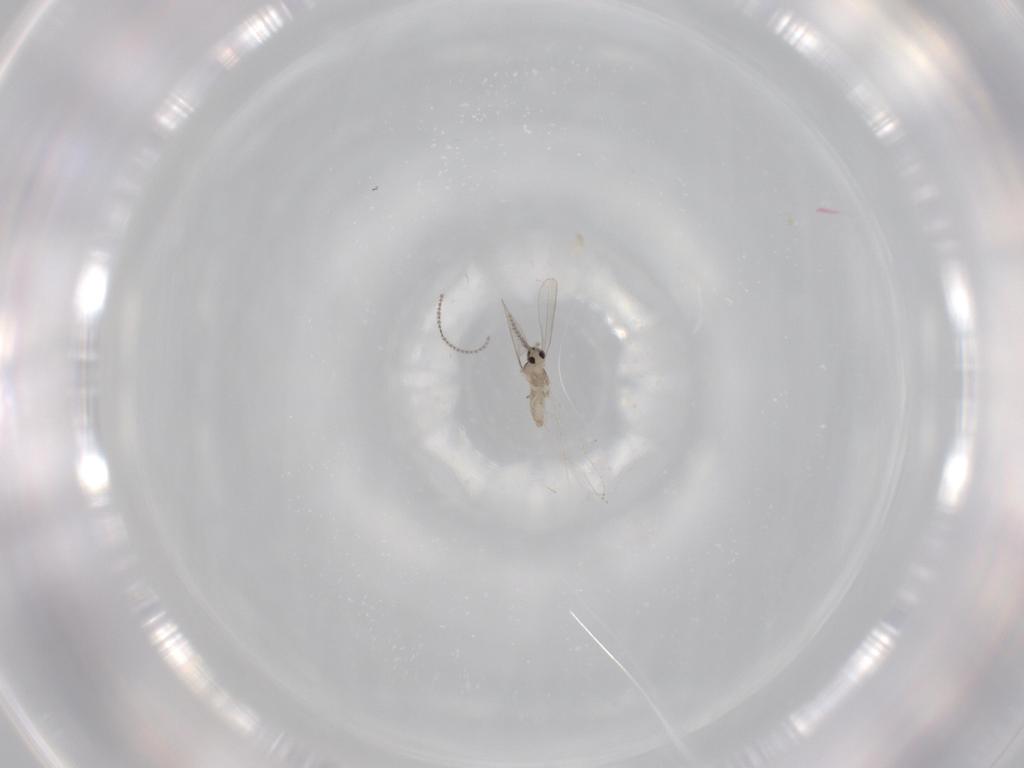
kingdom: Animalia
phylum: Arthropoda
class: Insecta
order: Diptera
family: Cecidomyiidae
